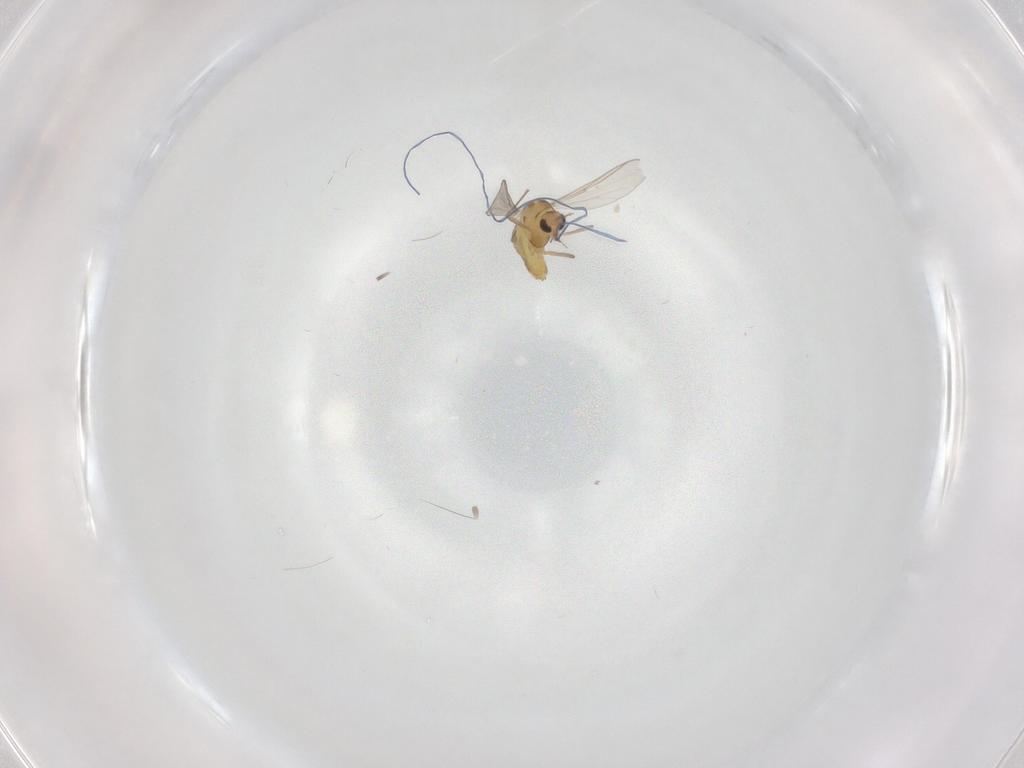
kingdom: Animalia
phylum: Arthropoda
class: Insecta
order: Diptera
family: Chironomidae
